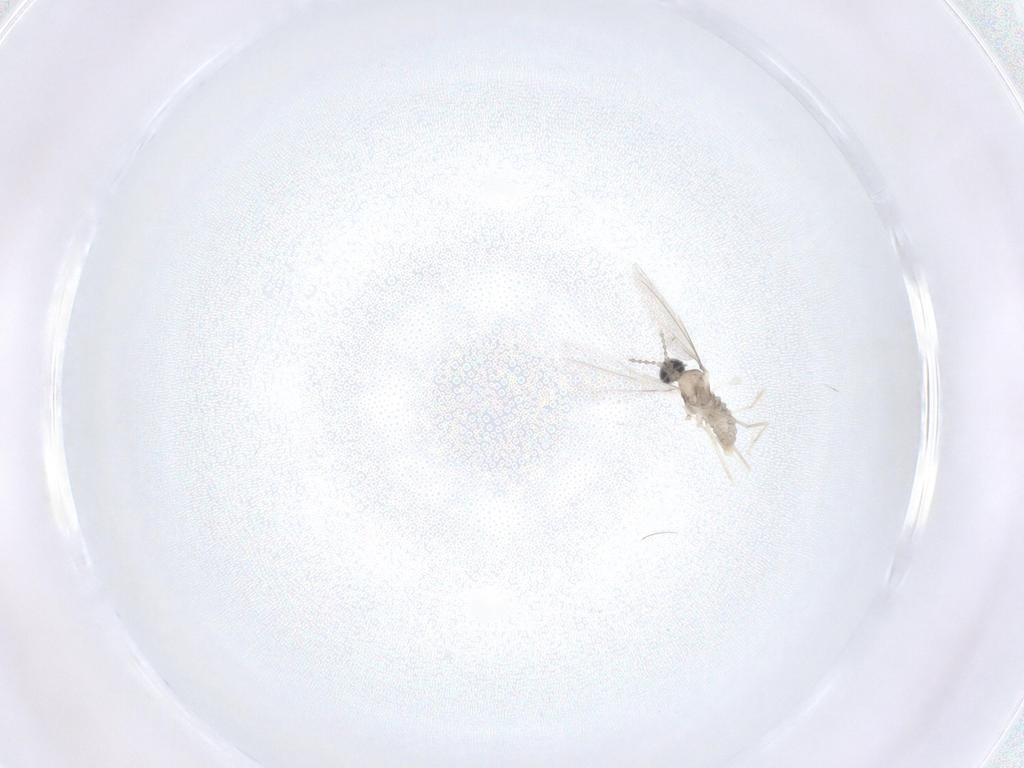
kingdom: Animalia
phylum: Arthropoda
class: Insecta
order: Diptera
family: Cecidomyiidae
